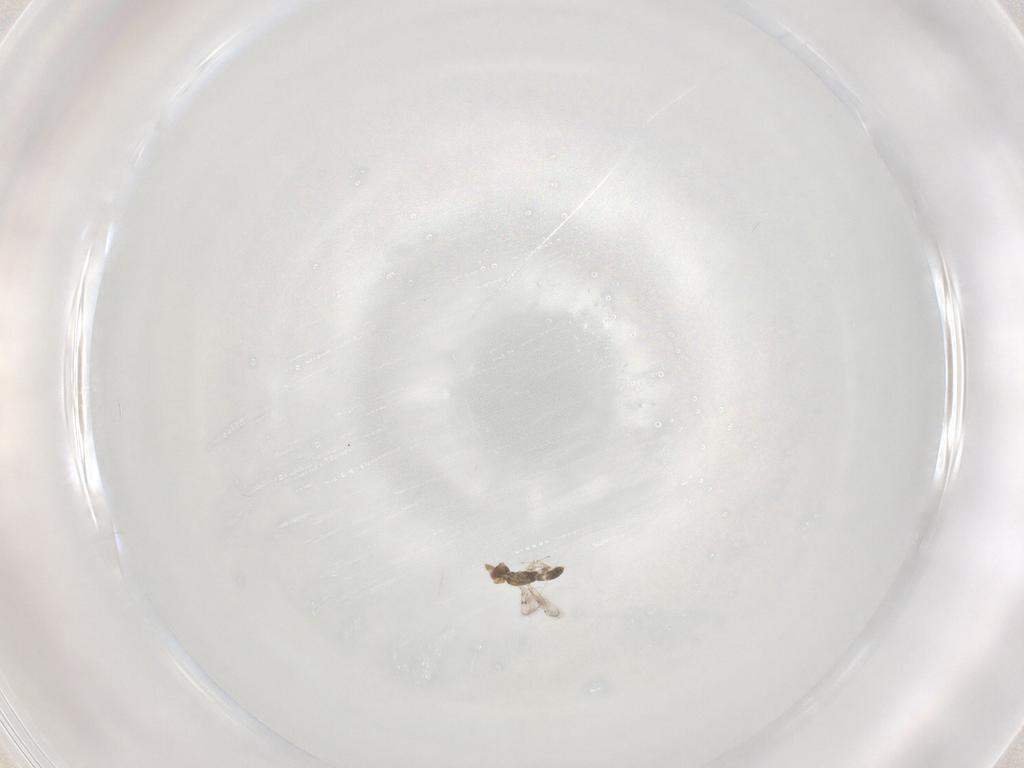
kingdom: Animalia
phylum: Arthropoda
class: Insecta
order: Hymenoptera
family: Eulophidae
